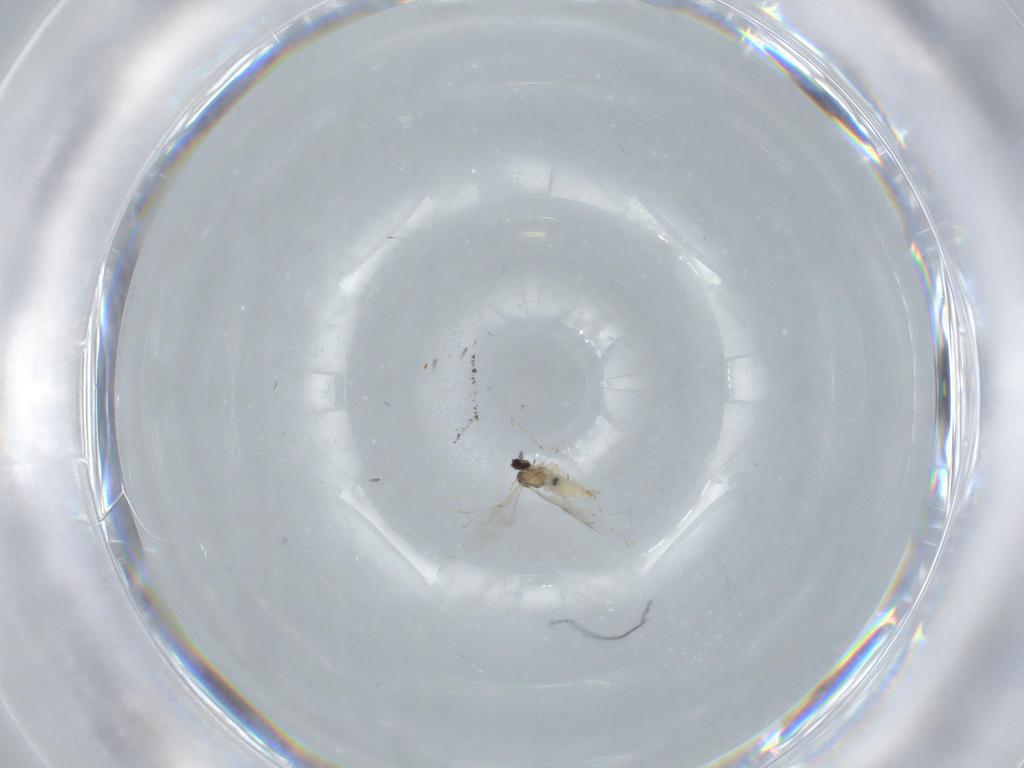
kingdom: Animalia
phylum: Arthropoda
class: Insecta
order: Diptera
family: Cecidomyiidae
